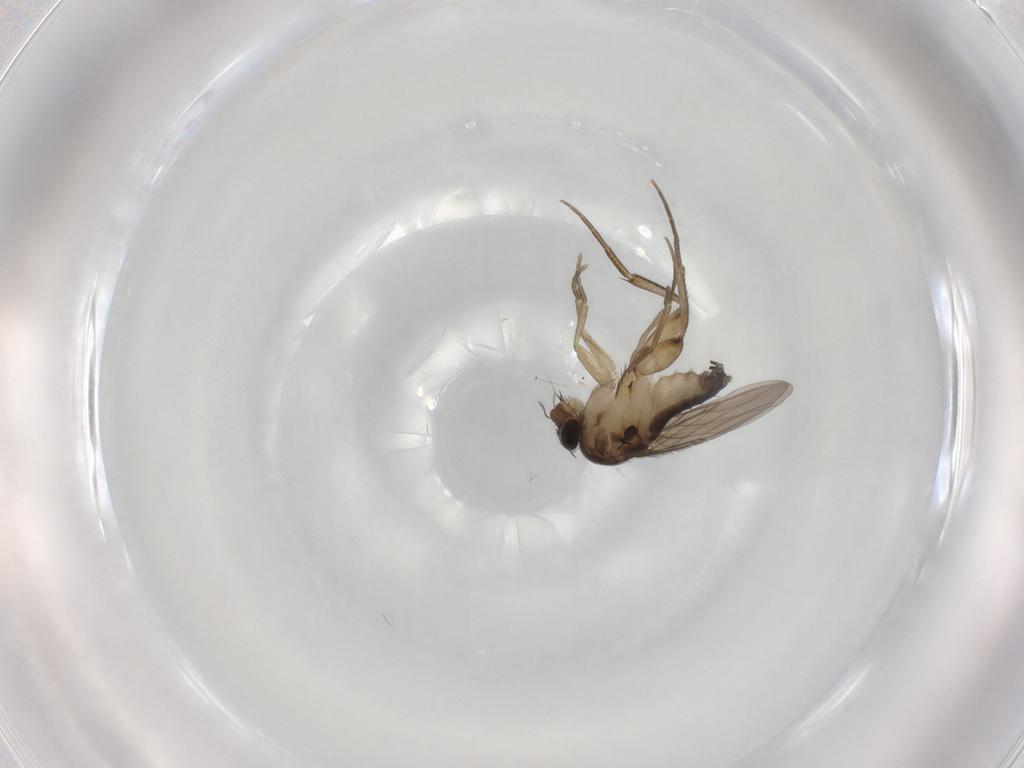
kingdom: Animalia
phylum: Arthropoda
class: Insecta
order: Diptera
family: Phoridae
